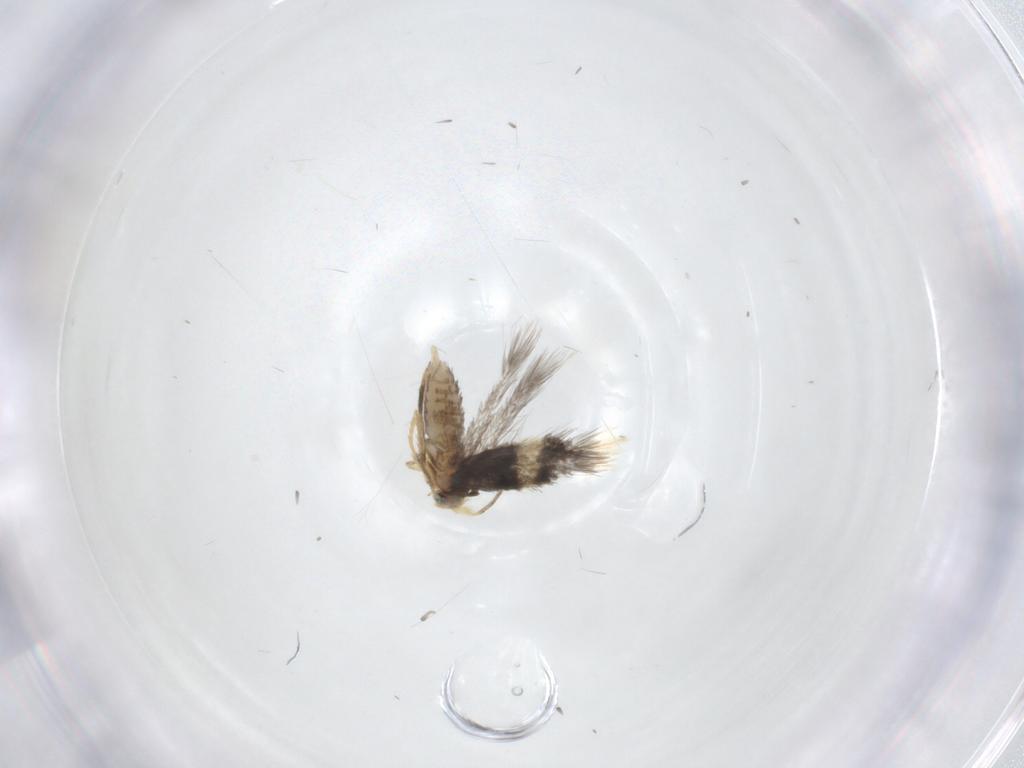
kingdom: Animalia
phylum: Arthropoda
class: Insecta
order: Lepidoptera
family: Nepticulidae
